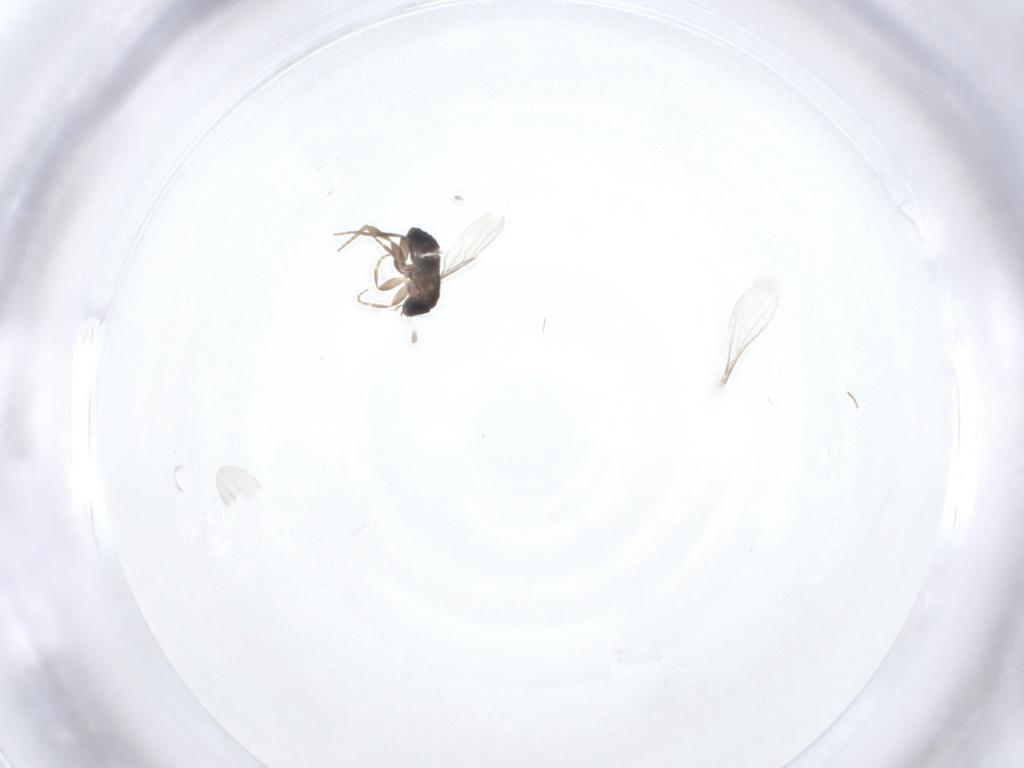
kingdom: Animalia
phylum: Arthropoda
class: Insecta
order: Diptera
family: Phoridae
